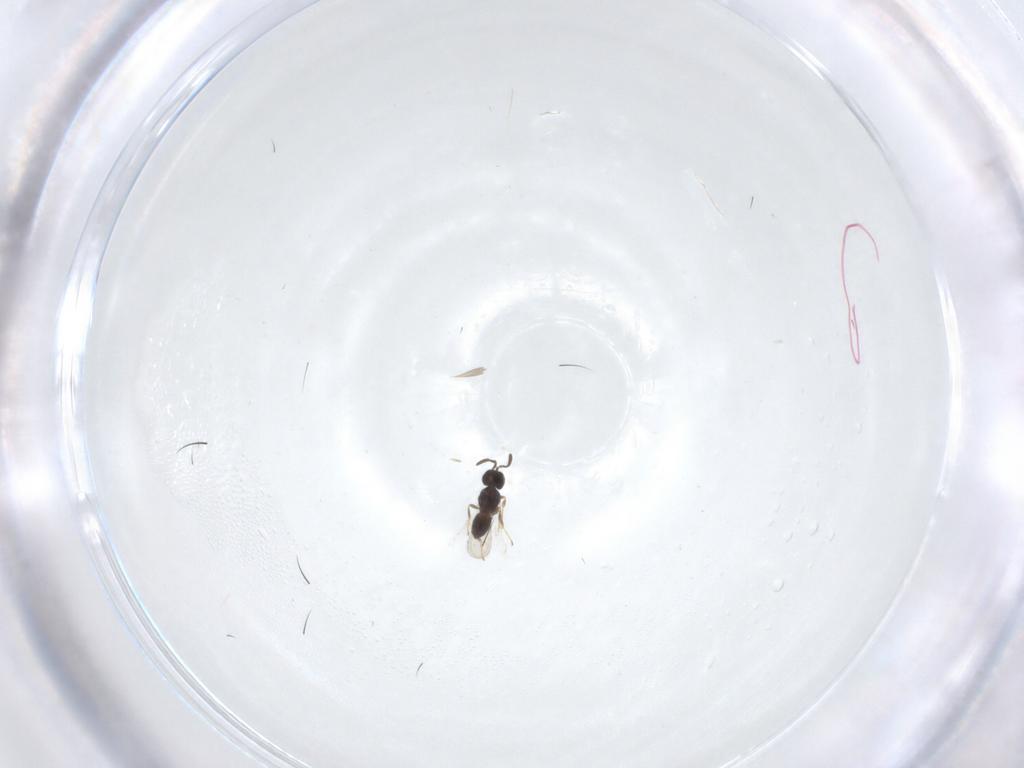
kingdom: Animalia
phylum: Arthropoda
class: Insecta
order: Hymenoptera
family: Scelionidae
